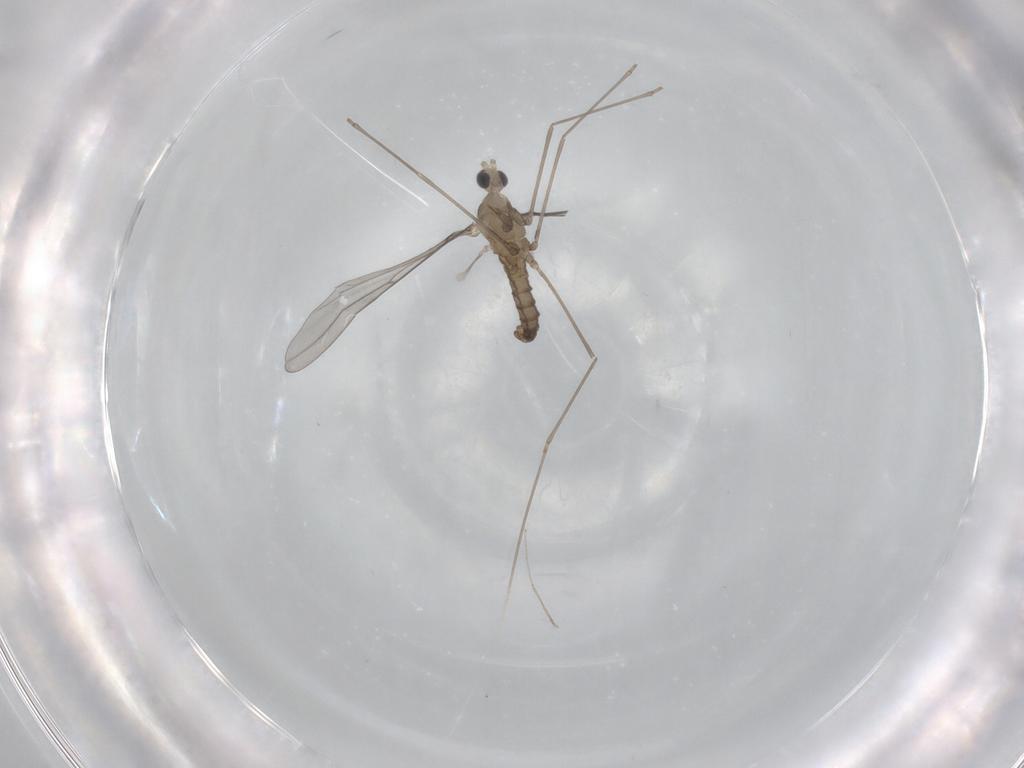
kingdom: Animalia
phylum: Arthropoda
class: Insecta
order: Diptera
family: Cecidomyiidae
